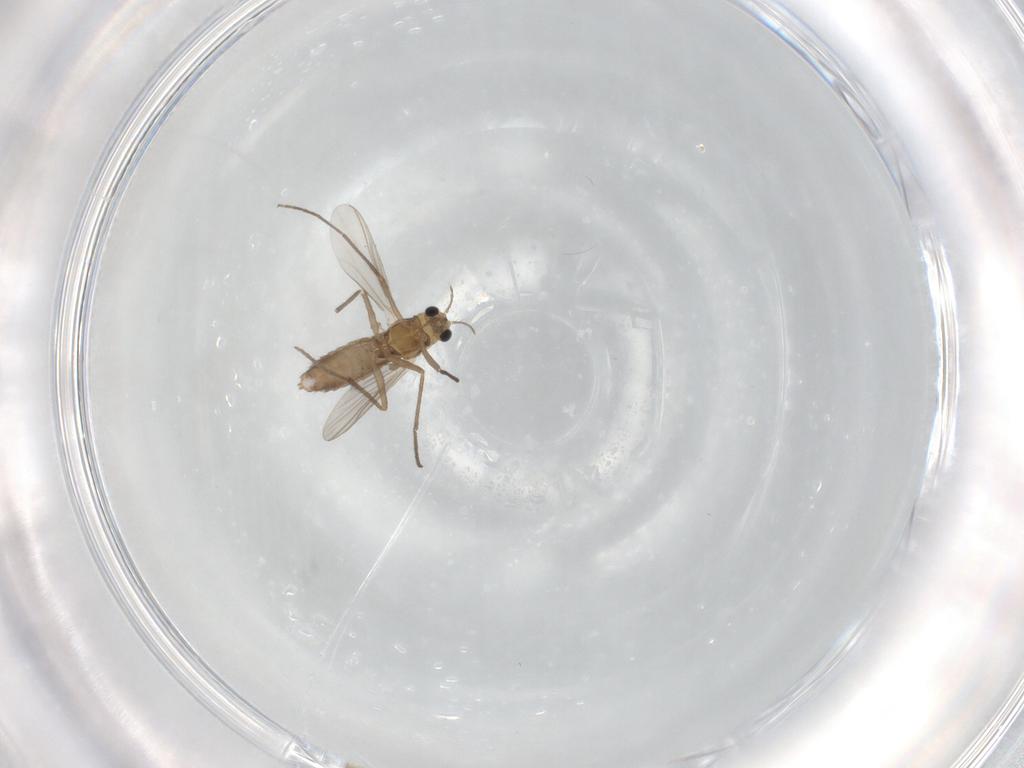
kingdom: Animalia
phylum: Arthropoda
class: Insecta
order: Diptera
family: Chironomidae
